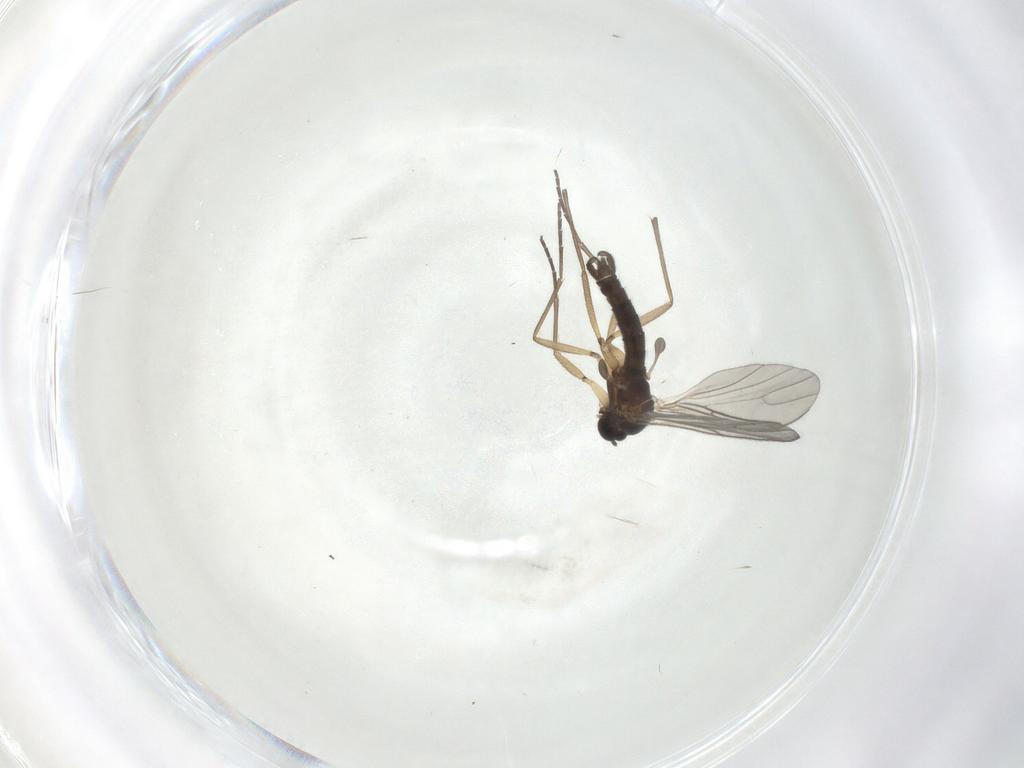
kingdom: Animalia
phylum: Arthropoda
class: Insecta
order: Diptera
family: Sciaridae
